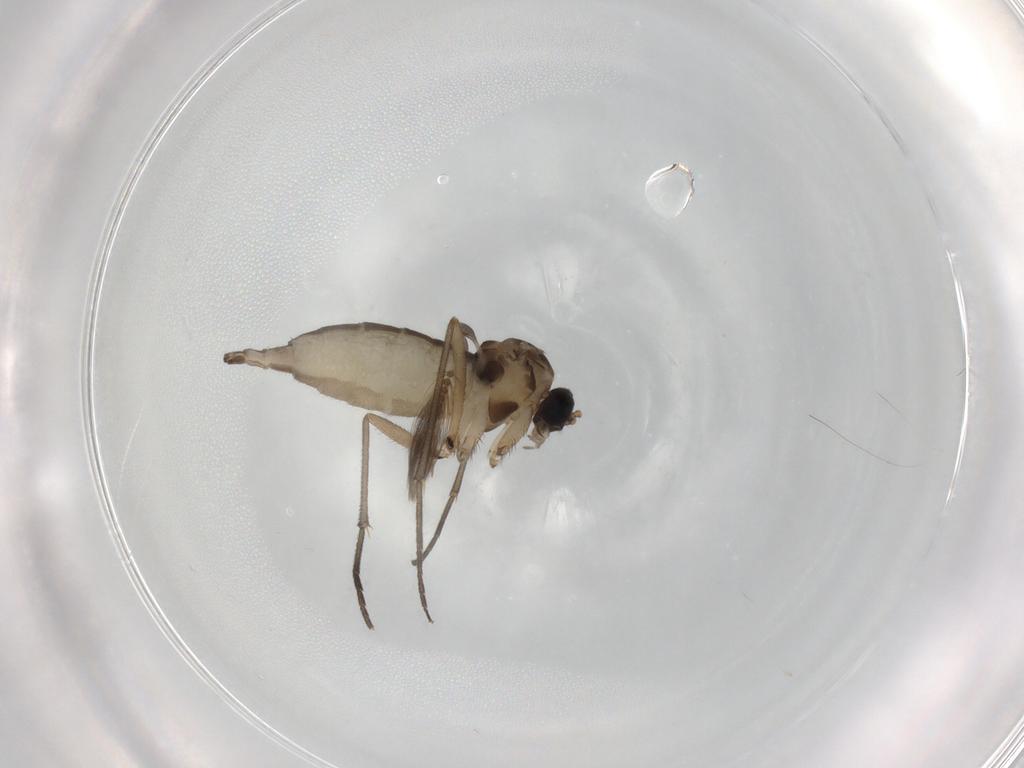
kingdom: Animalia
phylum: Arthropoda
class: Insecta
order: Diptera
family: Sciaridae
